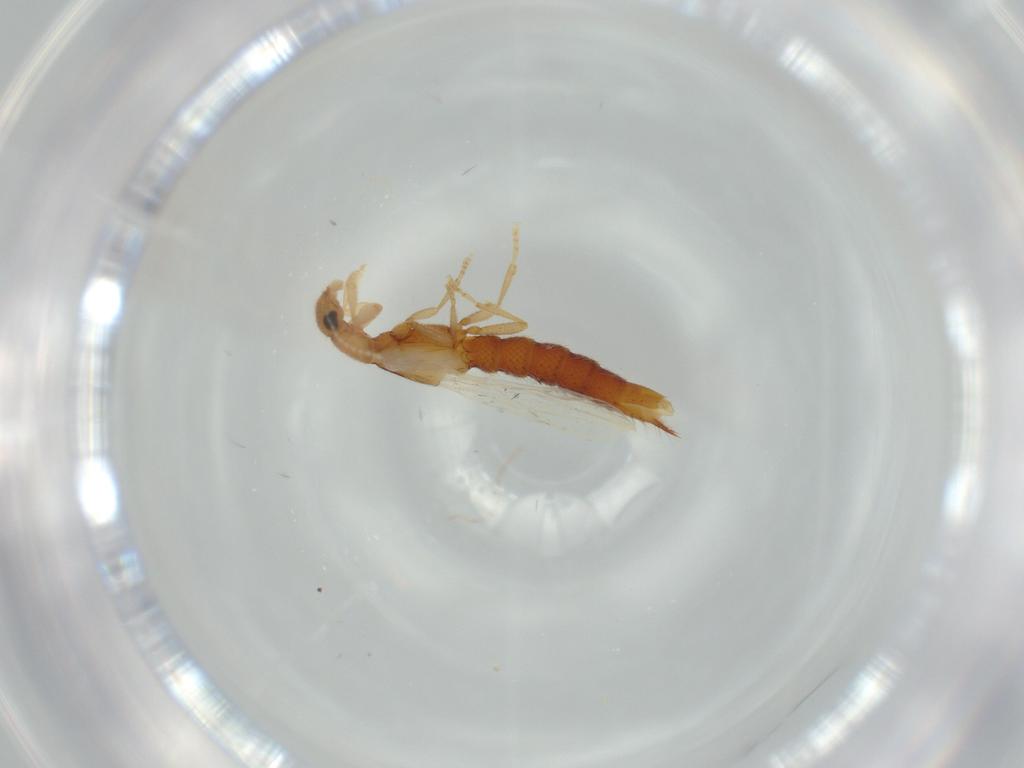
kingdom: Animalia
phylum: Arthropoda
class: Insecta
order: Coleoptera
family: Staphylinidae
